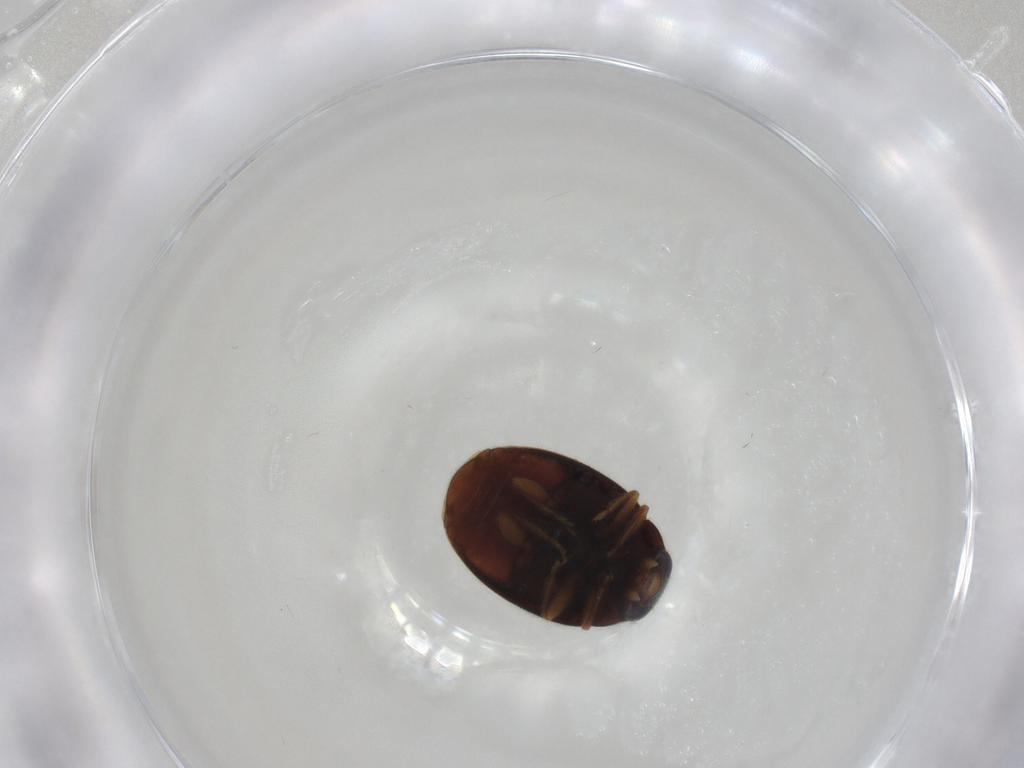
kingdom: Animalia
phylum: Arthropoda
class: Insecta
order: Coleoptera
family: Coccinellidae
